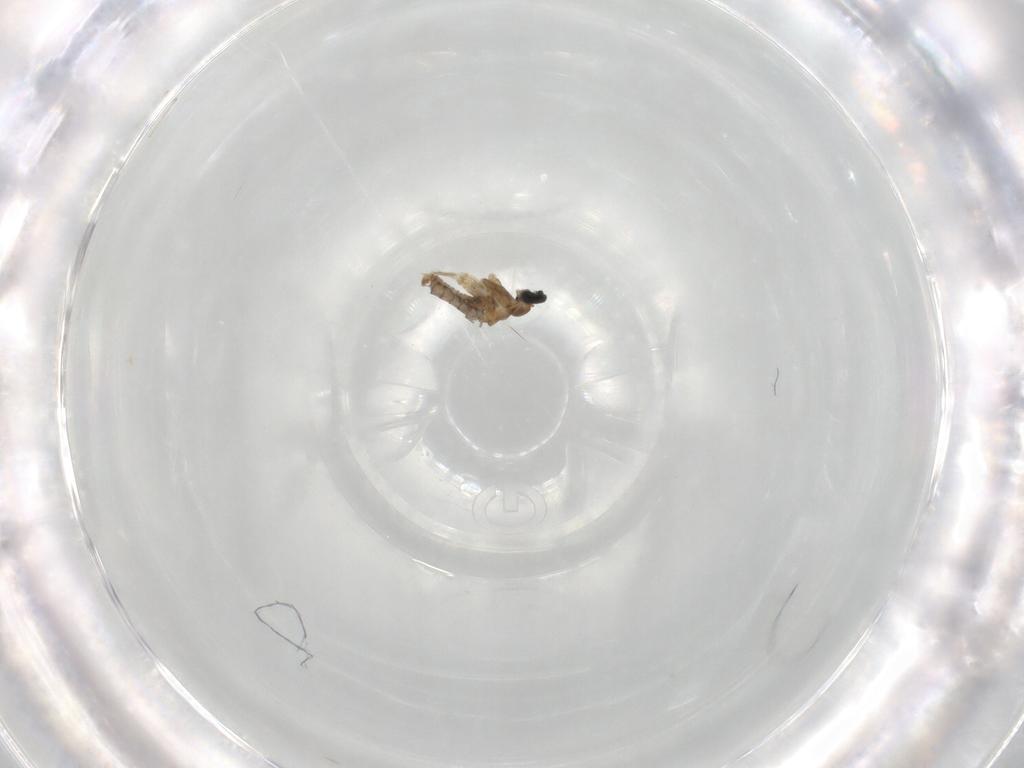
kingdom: Animalia
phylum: Arthropoda
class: Insecta
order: Diptera
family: Cecidomyiidae
